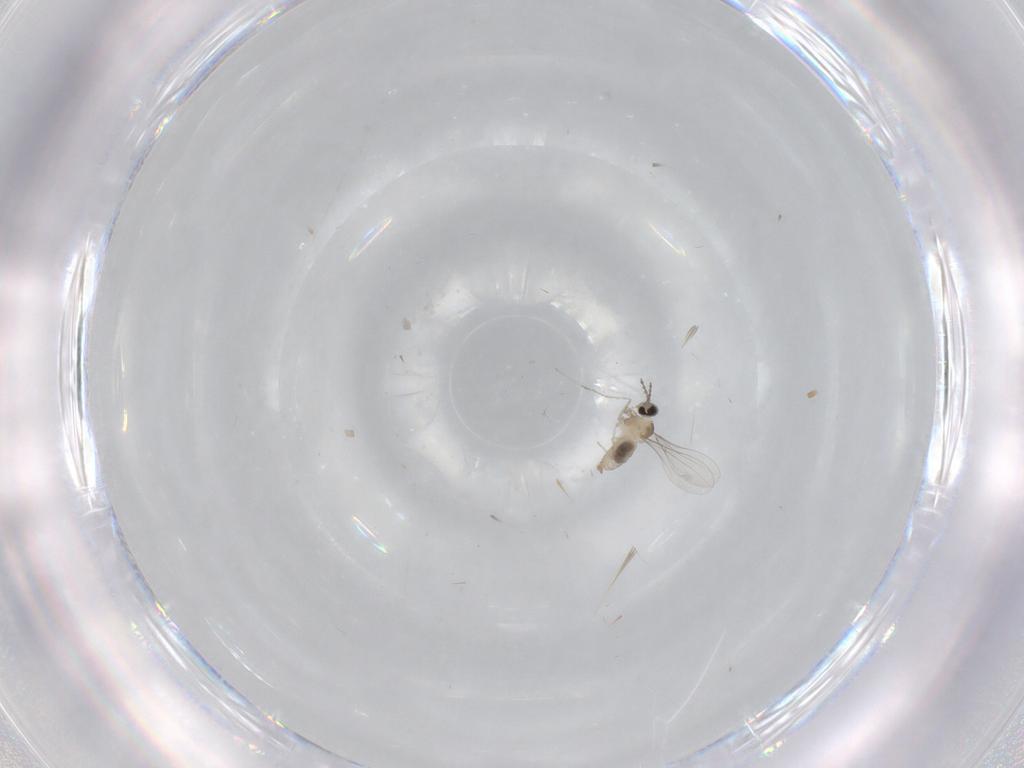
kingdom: Animalia
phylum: Arthropoda
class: Insecta
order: Diptera
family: Cecidomyiidae
